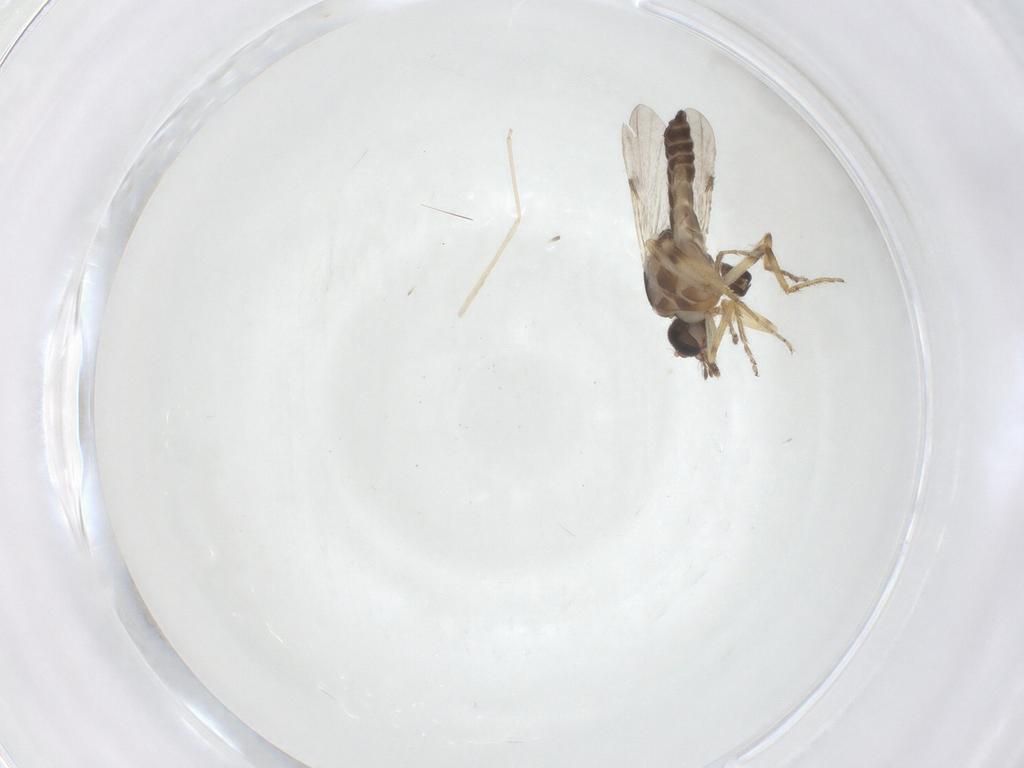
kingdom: Animalia
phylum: Arthropoda
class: Insecta
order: Diptera
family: Ceratopogonidae
